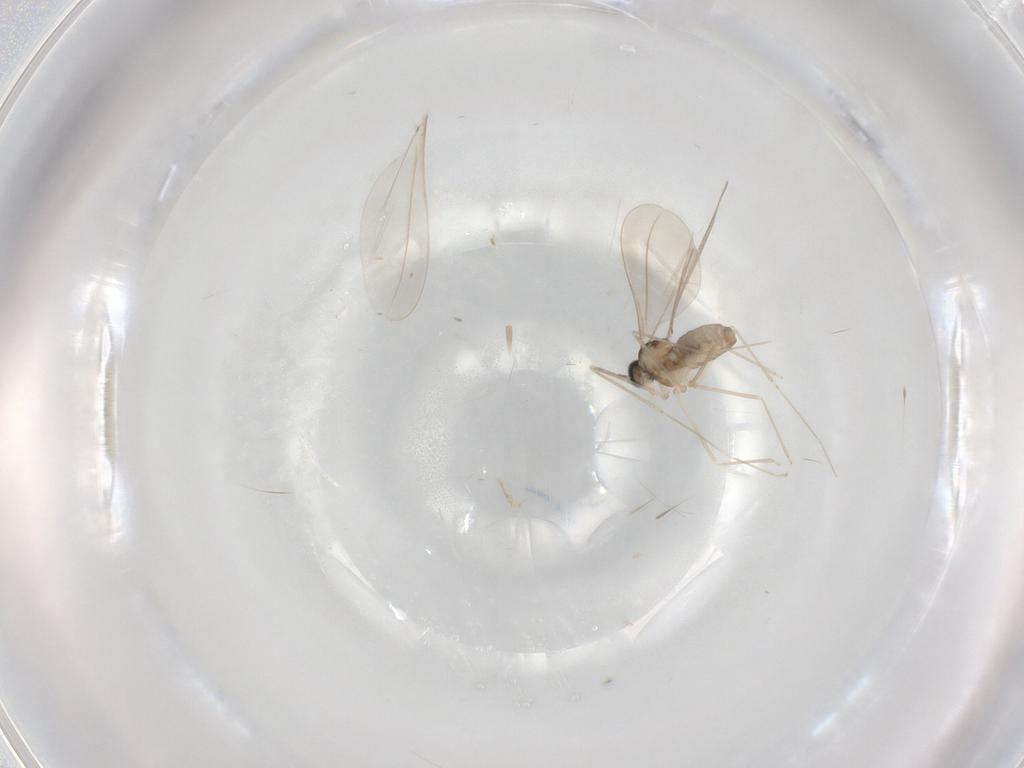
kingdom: Animalia
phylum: Arthropoda
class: Insecta
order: Diptera
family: Cecidomyiidae
